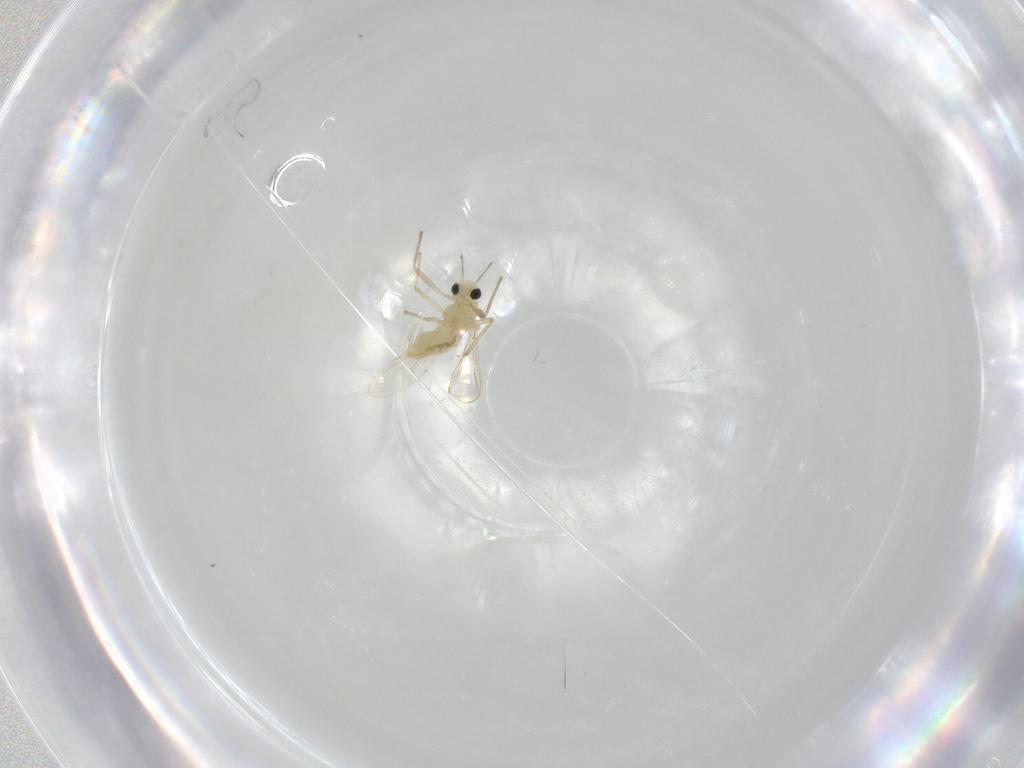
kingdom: Animalia
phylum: Arthropoda
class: Insecta
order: Diptera
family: Chironomidae
